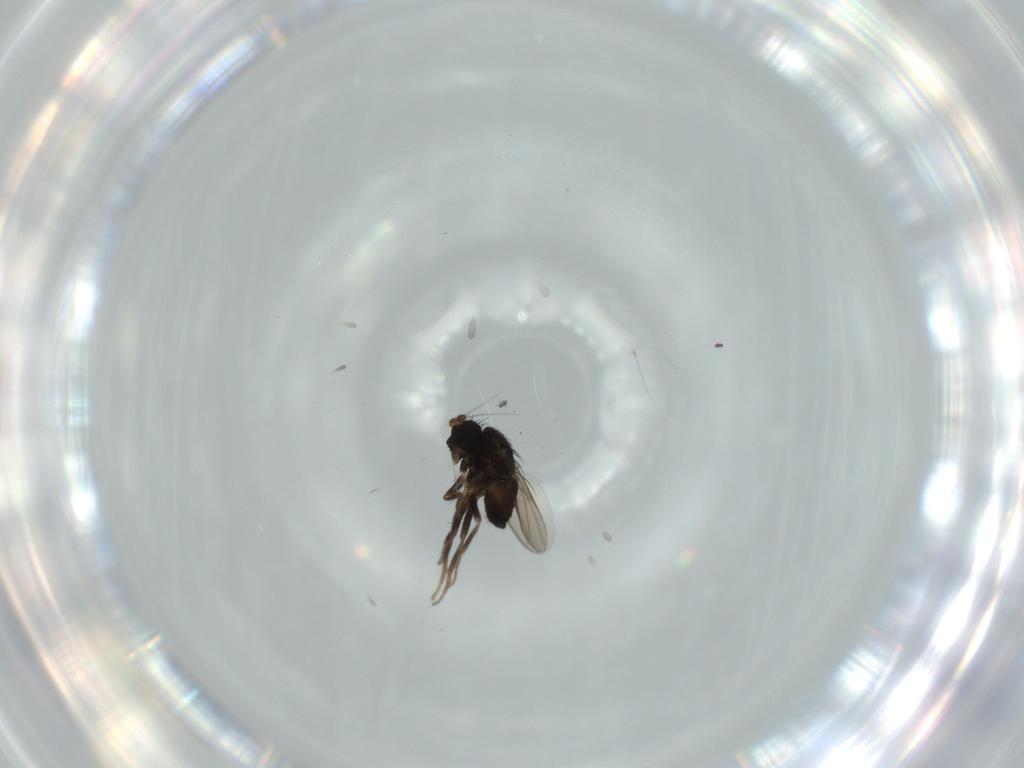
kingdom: Animalia
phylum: Arthropoda
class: Insecta
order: Diptera
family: Sphaeroceridae
